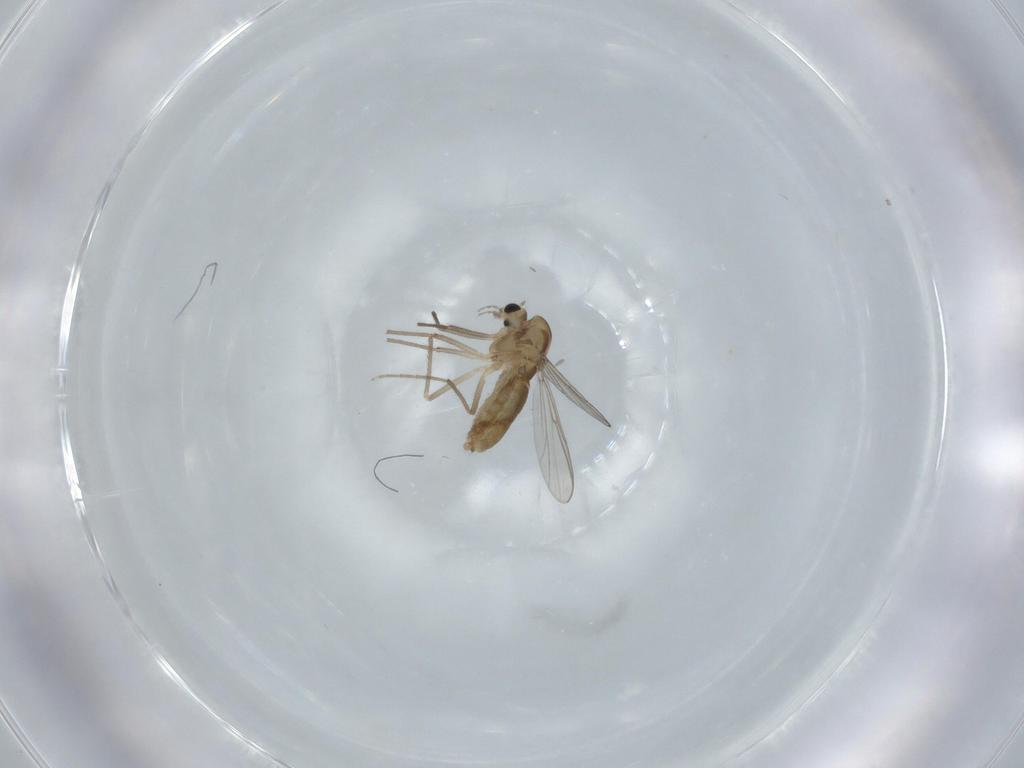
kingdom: Animalia
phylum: Arthropoda
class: Insecta
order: Diptera
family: Chironomidae
